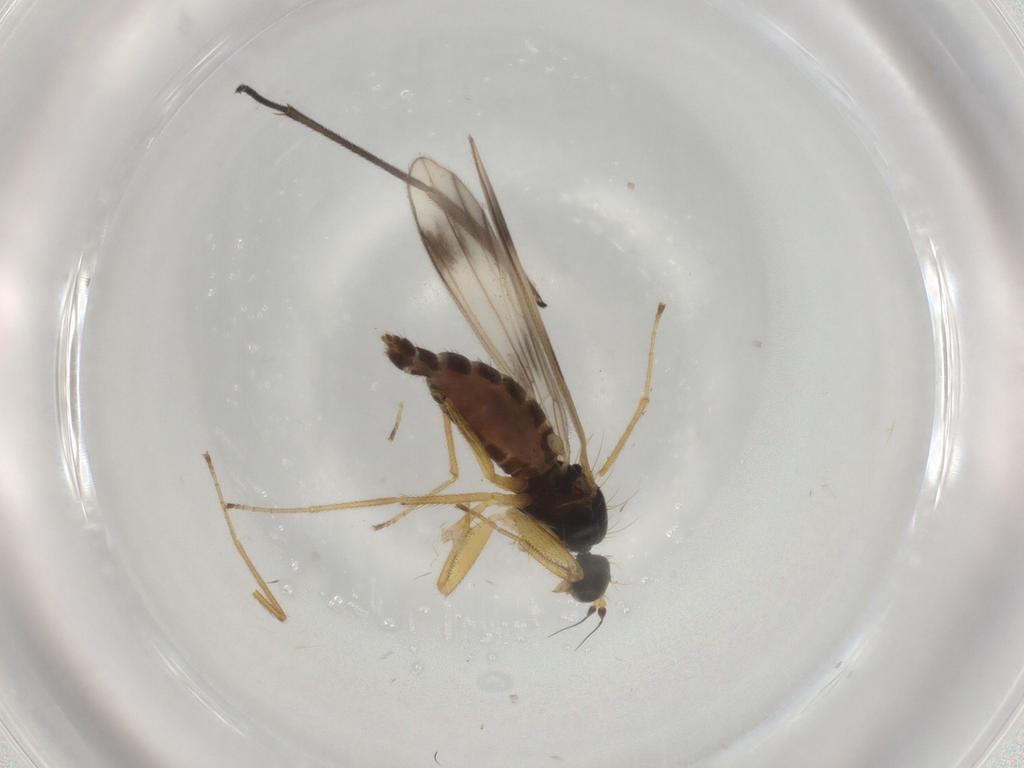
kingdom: Animalia
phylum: Arthropoda
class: Insecta
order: Diptera
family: Chironomidae
